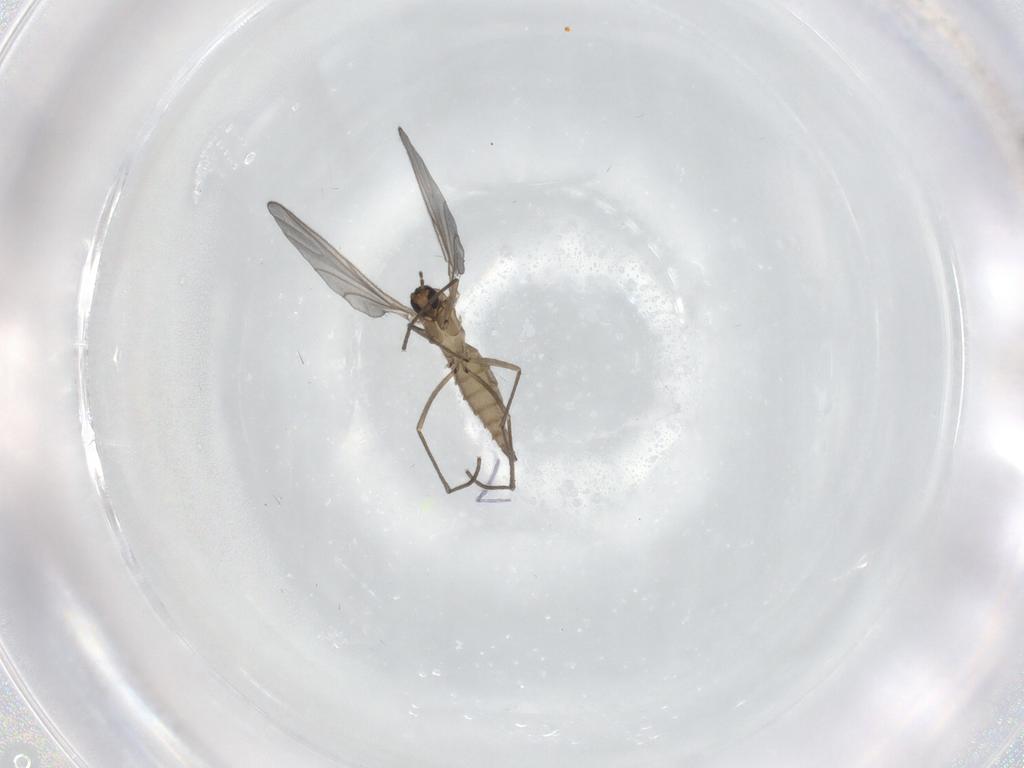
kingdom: Animalia
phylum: Arthropoda
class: Insecta
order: Diptera
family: Sciaridae
